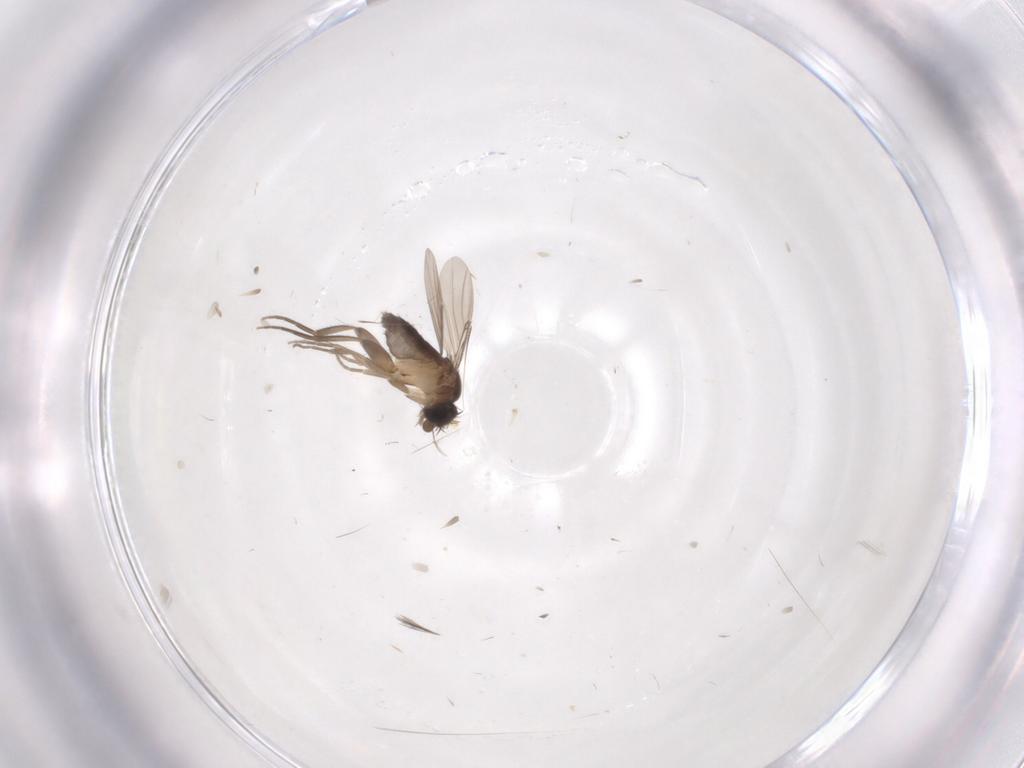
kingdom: Animalia
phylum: Arthropoda
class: Insecta
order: Diptera
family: Phoridae
